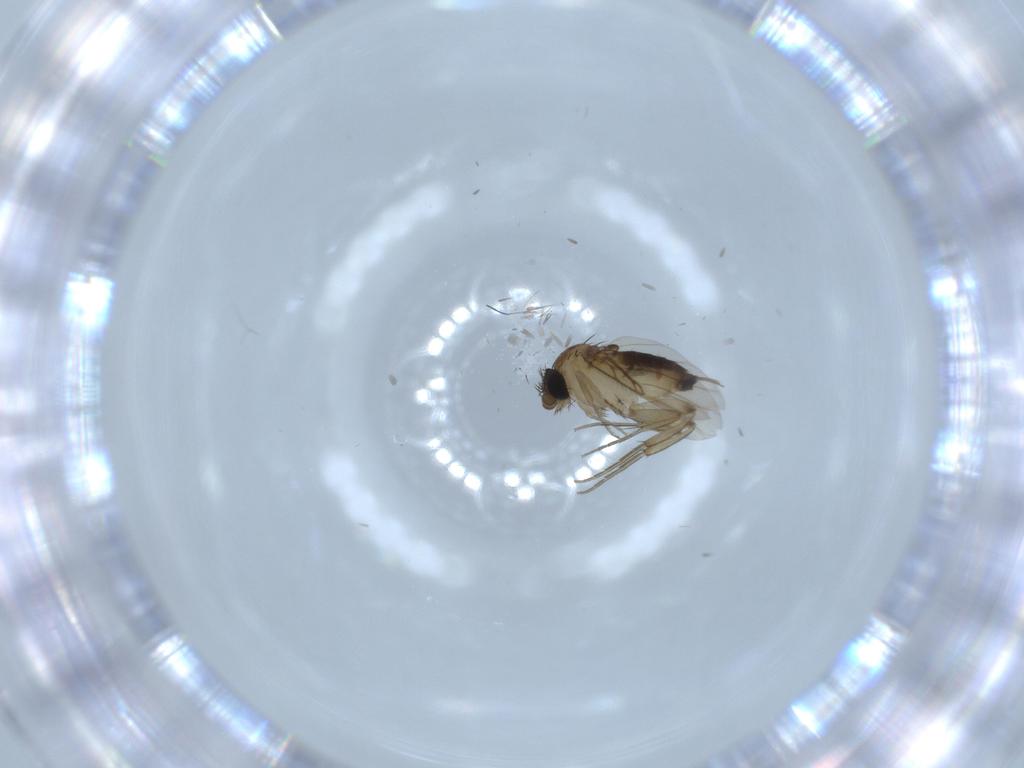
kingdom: Animalia
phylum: Arthropoda
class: Insecta
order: Diptera
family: Phoridae
